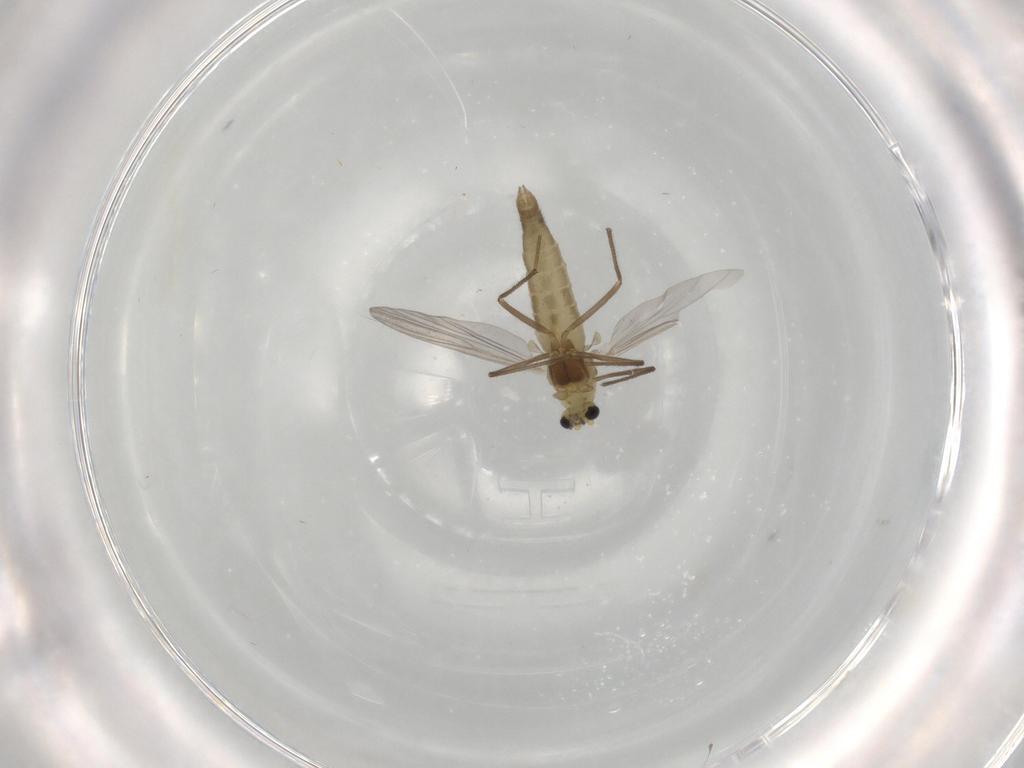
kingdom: Animalia
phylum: Arthropoda
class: Insecta
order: Diptera
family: Chironomidae
